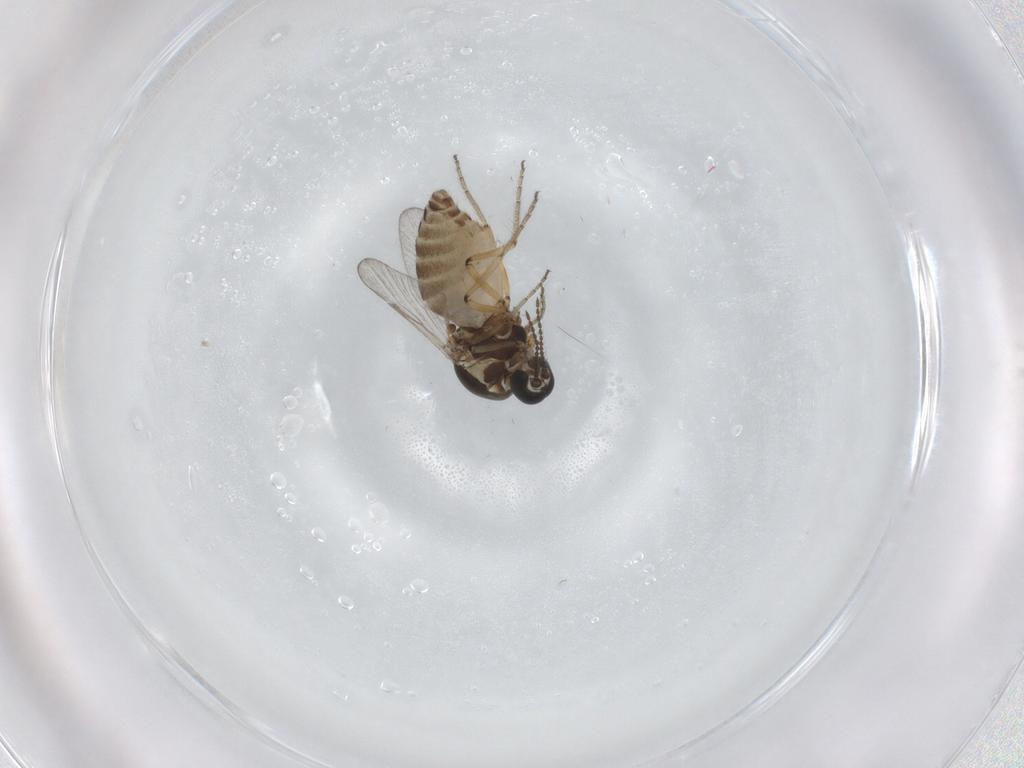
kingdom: Animalia
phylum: Arthropoda
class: Insecta
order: Diptera
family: Ceratopogonidae
